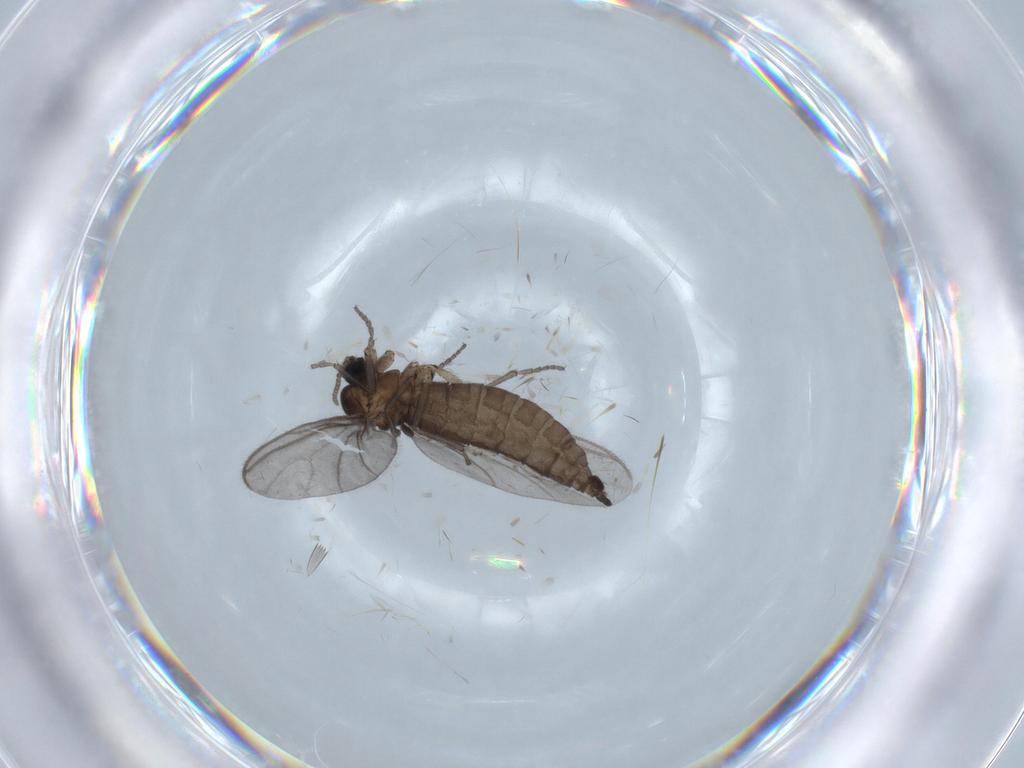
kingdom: Animalia
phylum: Arthropoda
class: Insecta
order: Diptera
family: Sciaridae
